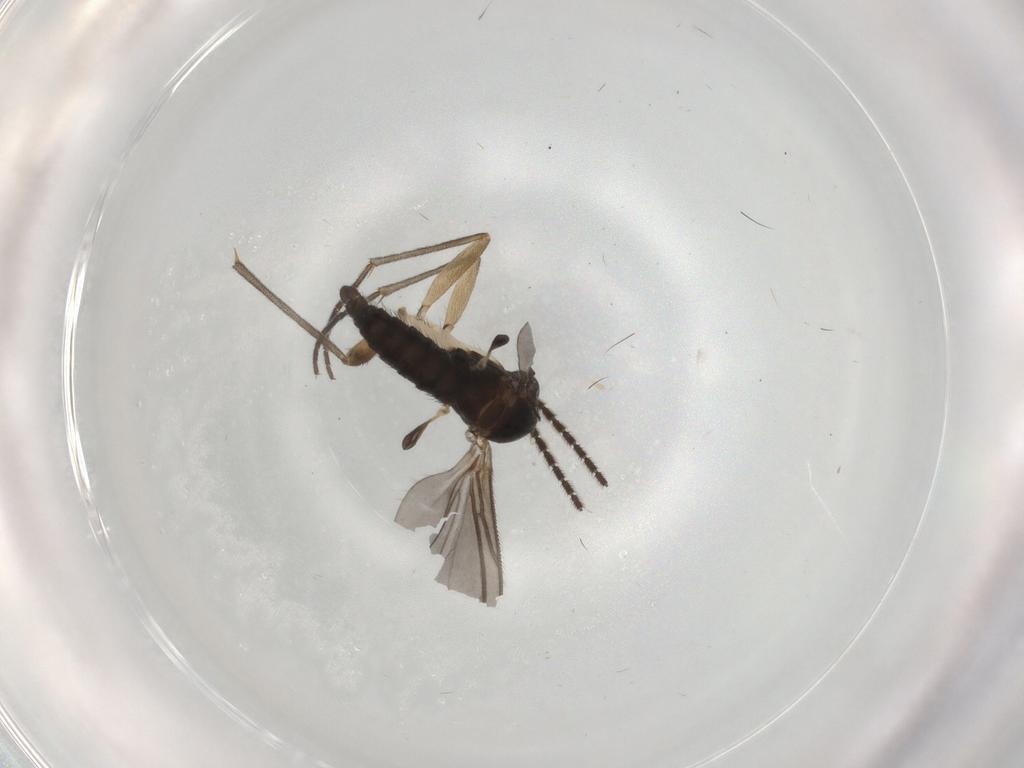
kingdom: Animalia
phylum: Arthropoda
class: Insecta
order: Diptera
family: Sciaridae
